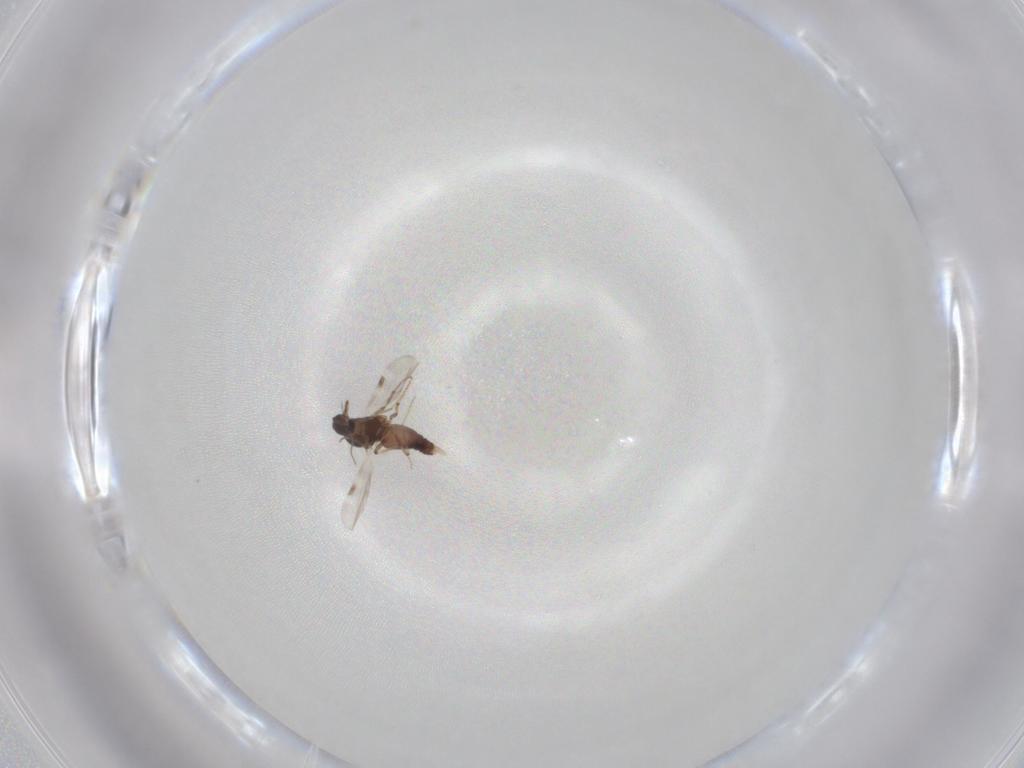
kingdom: Animalia
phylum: Arthropoda
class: Insecta
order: Diptera
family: Bibionidae
